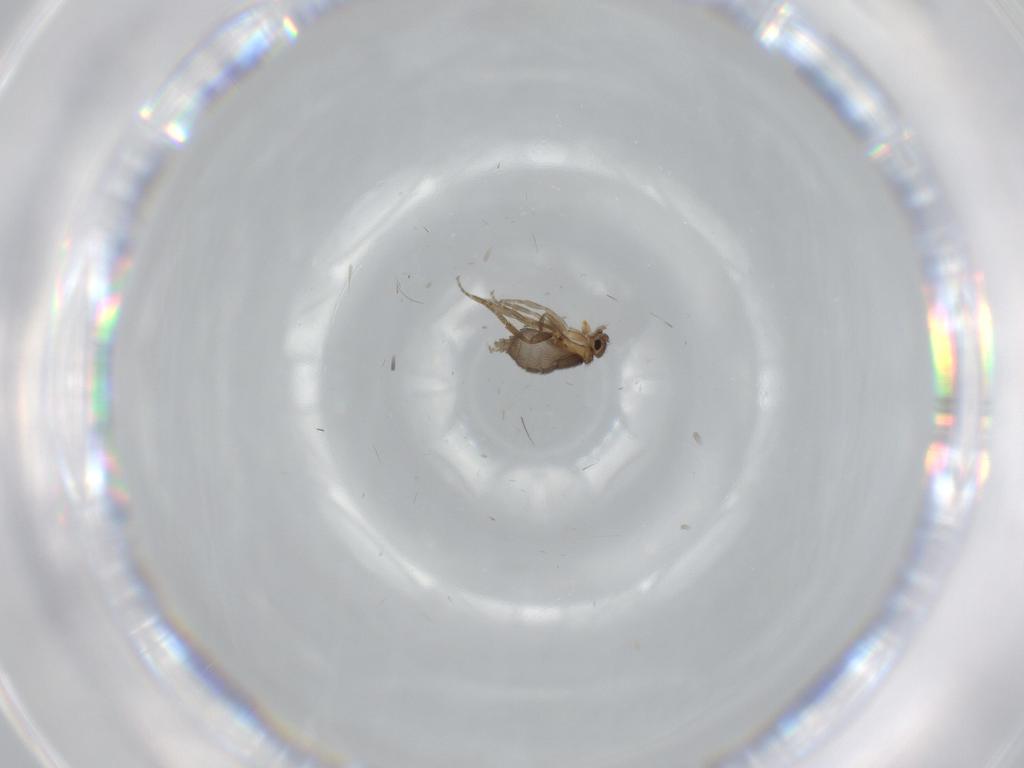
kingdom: Animalia
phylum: Arthropoda
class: Insecta
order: Diptera
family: Phoridae
